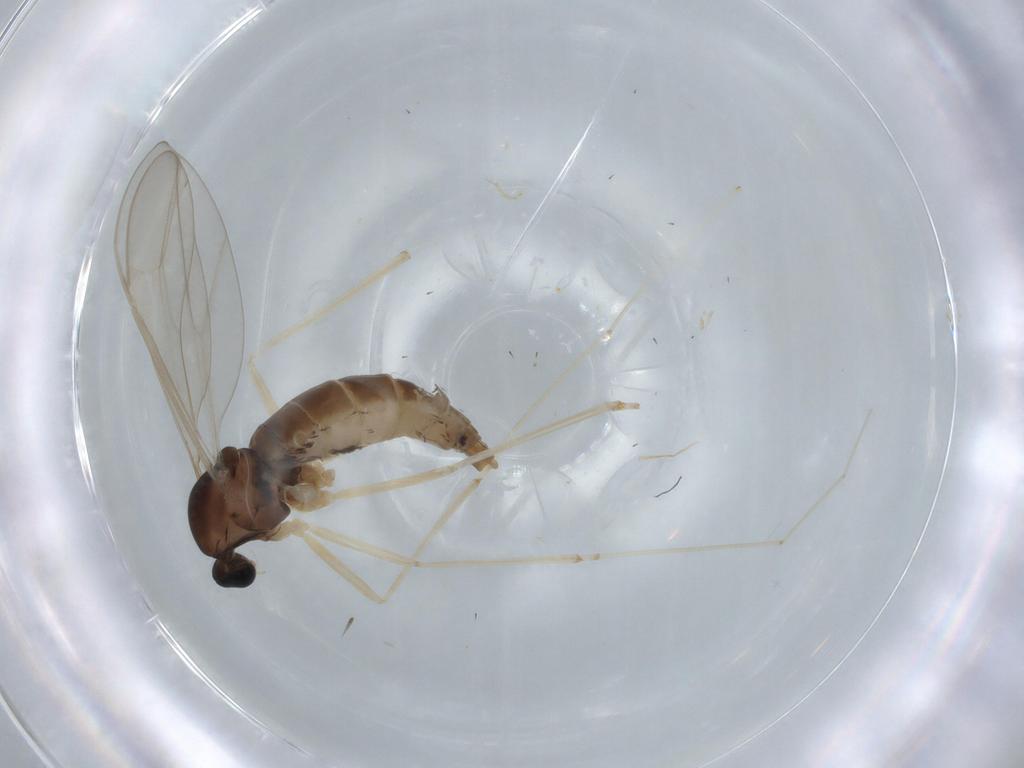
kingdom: Animalia
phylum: Arthropoda
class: Insecta
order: Diptera
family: Cecidomyiidae
